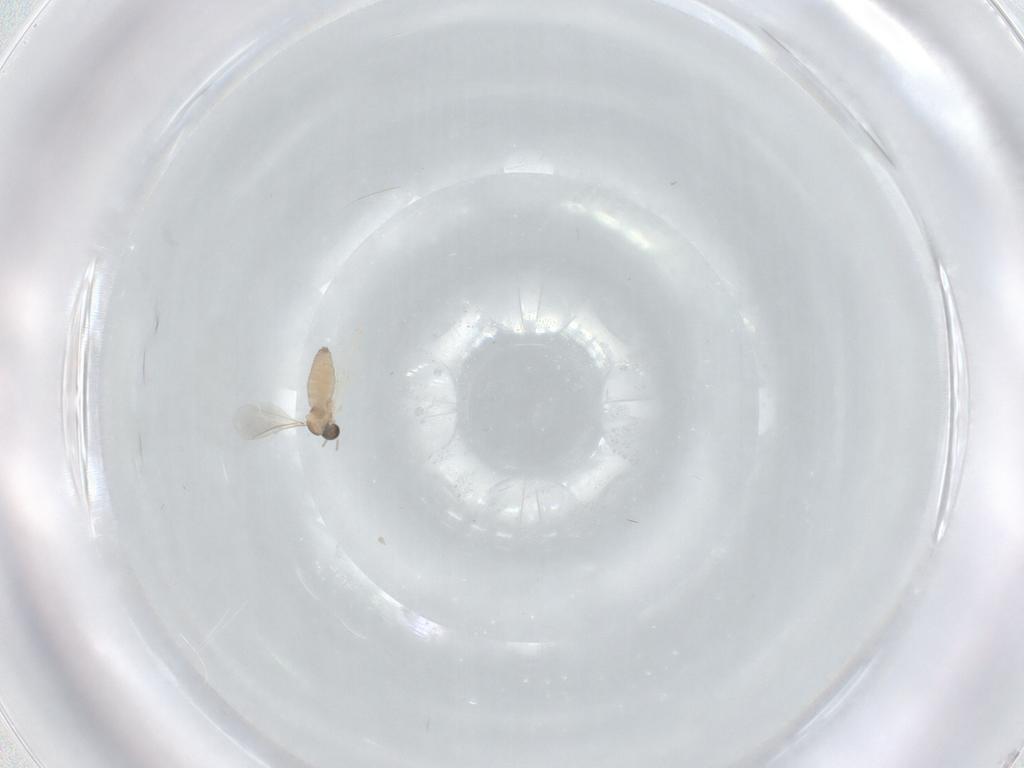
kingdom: Animalia
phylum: Arthropoda
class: Insecta
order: Diptera
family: Cecidomyiidae
